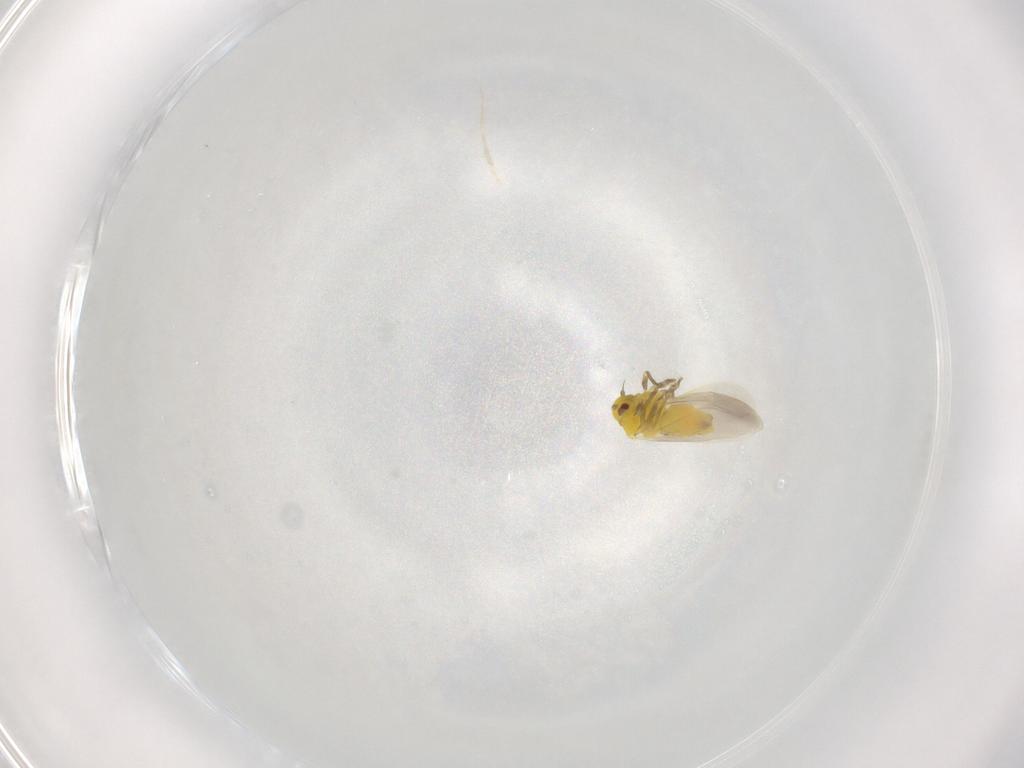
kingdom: Animalia
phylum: Arthropoda
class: Insecta
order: Hemiptera
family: Aleyrodidae
